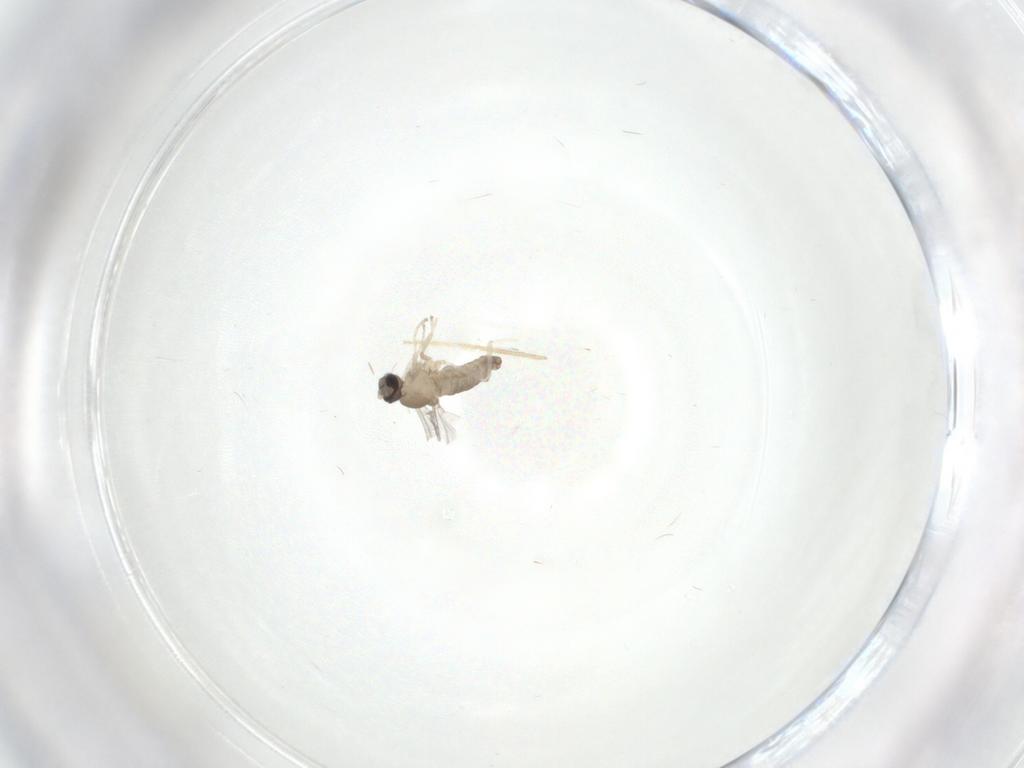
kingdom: Animalia
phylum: Arthropoda
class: Insecta
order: Diptera
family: Cecidomyiidae
